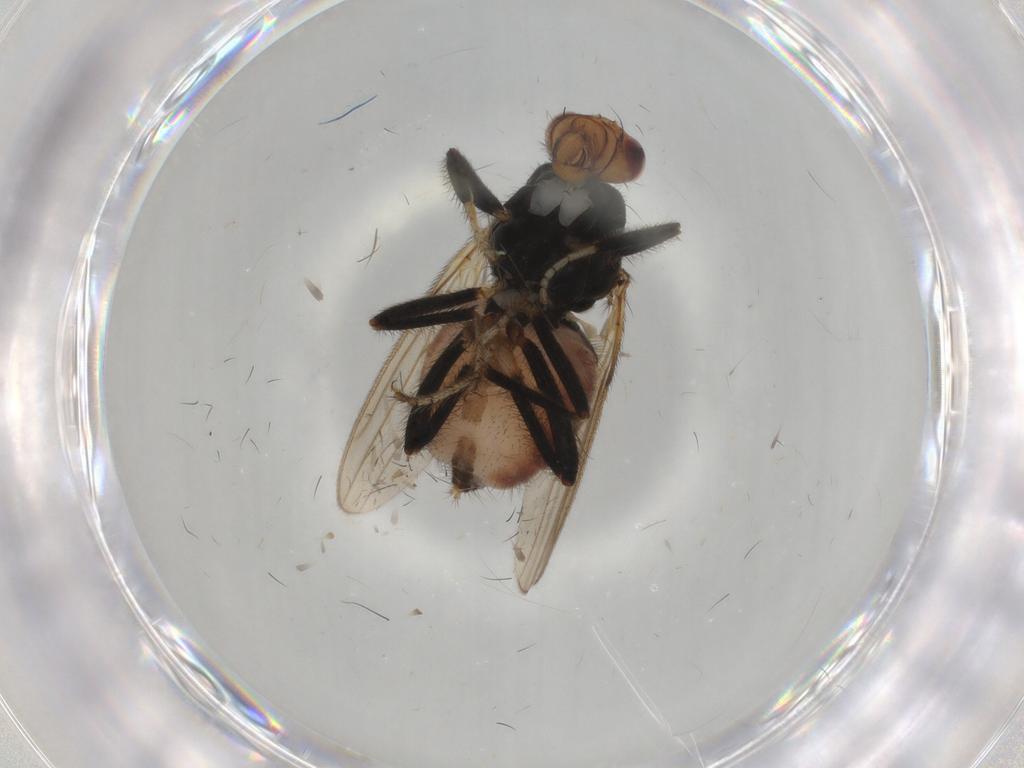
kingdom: Animalia
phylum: Arthropoda
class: Insecta
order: Diptera
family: Sphaeroceridae
